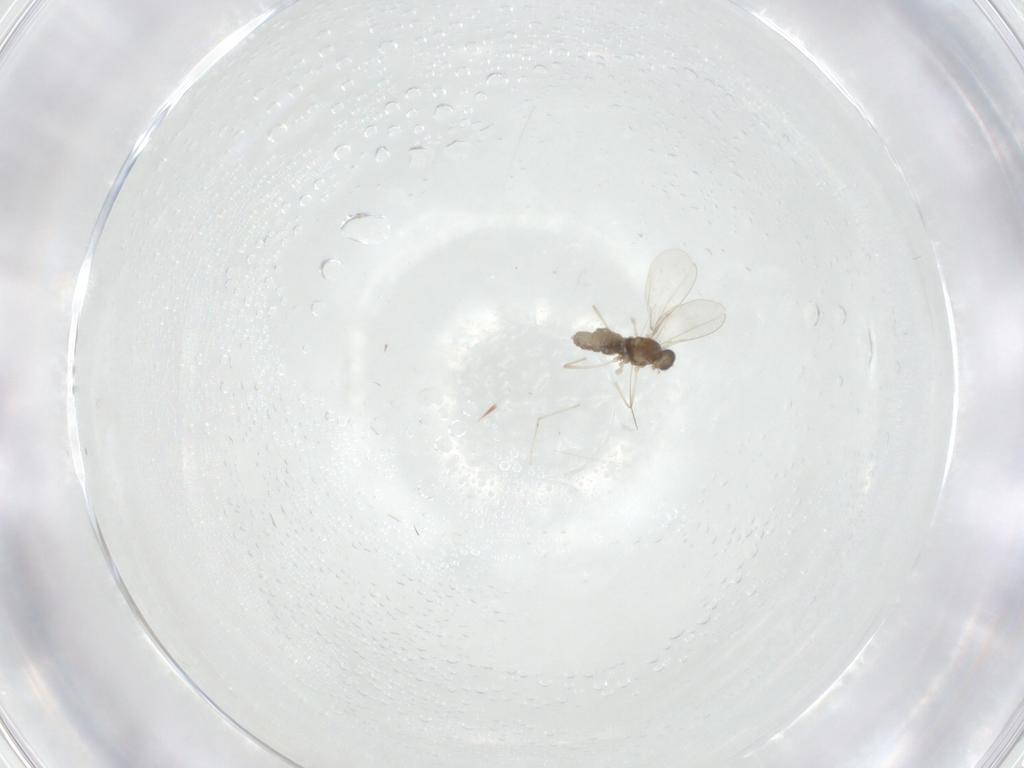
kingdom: Animalia
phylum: Arthropoda
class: Insecta
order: Diptera
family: Cecidomyiidae
